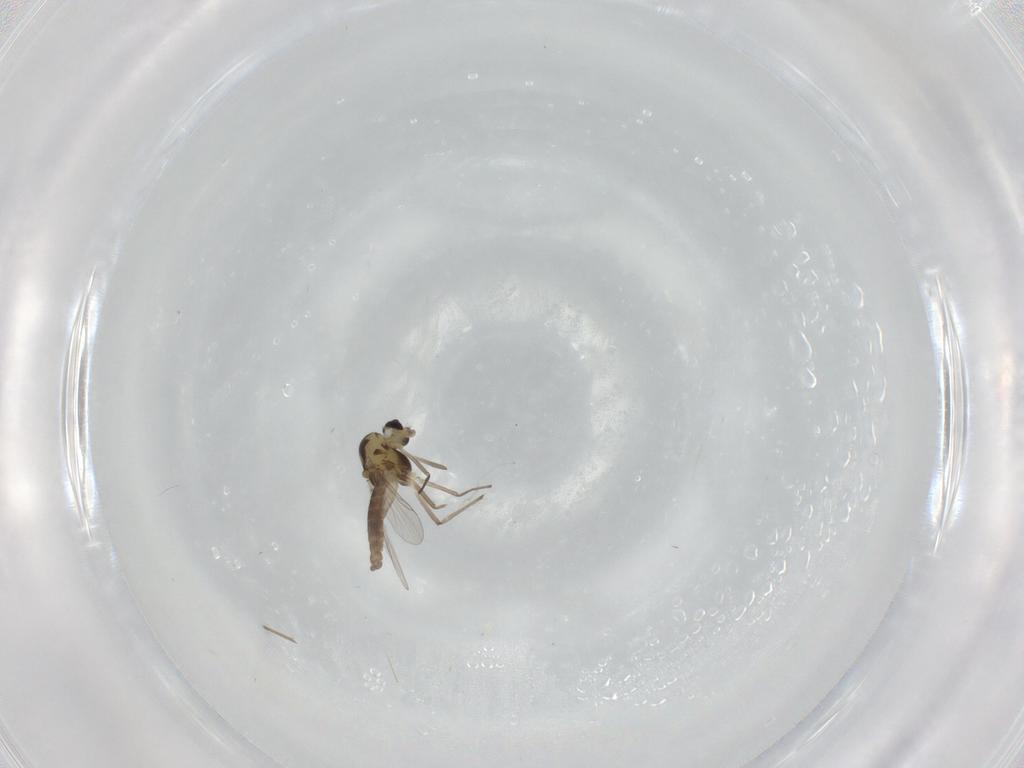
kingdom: Animalia
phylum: Arthropoda
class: Insecta
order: Diptera
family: Chironomidae
